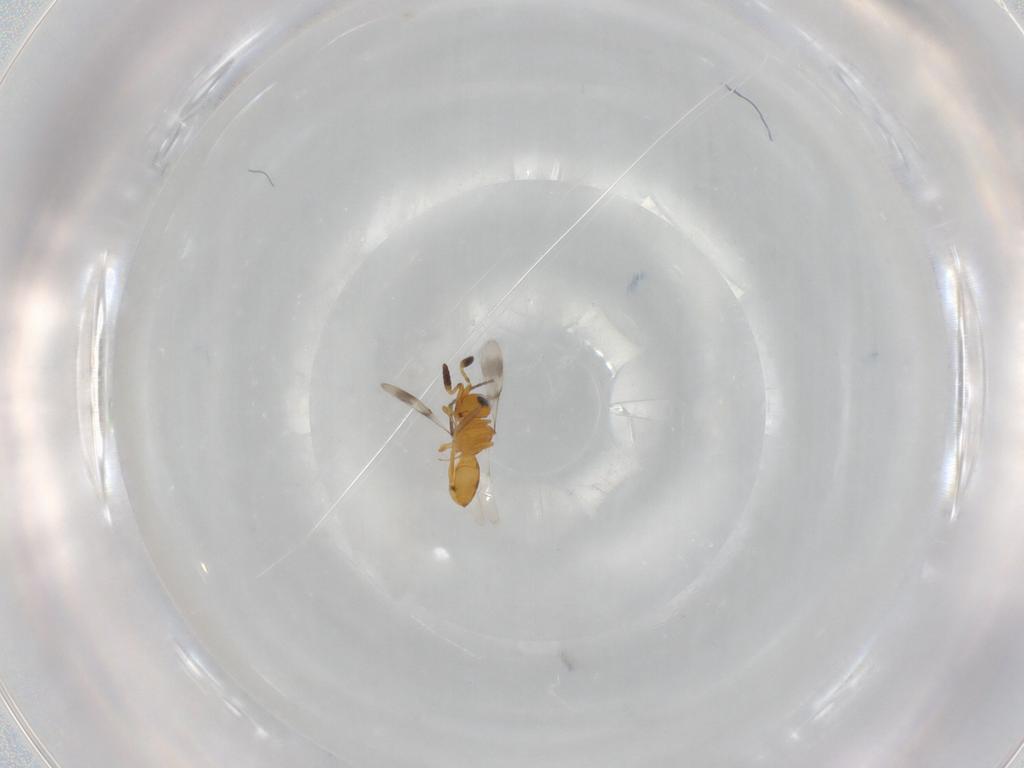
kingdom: Animalia
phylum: Arthropoda
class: Insecta
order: Hymenoptera
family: Scelionidae
